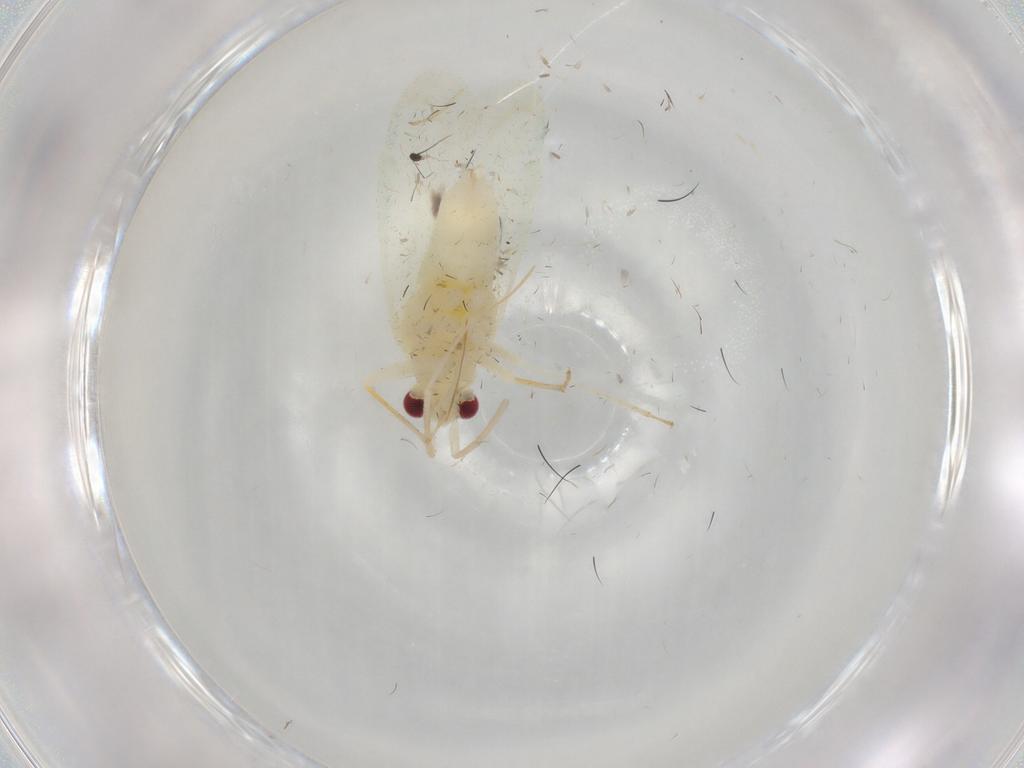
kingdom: Animalia
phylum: Arthropoda
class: Insecta
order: Hemiptera
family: Miridae
